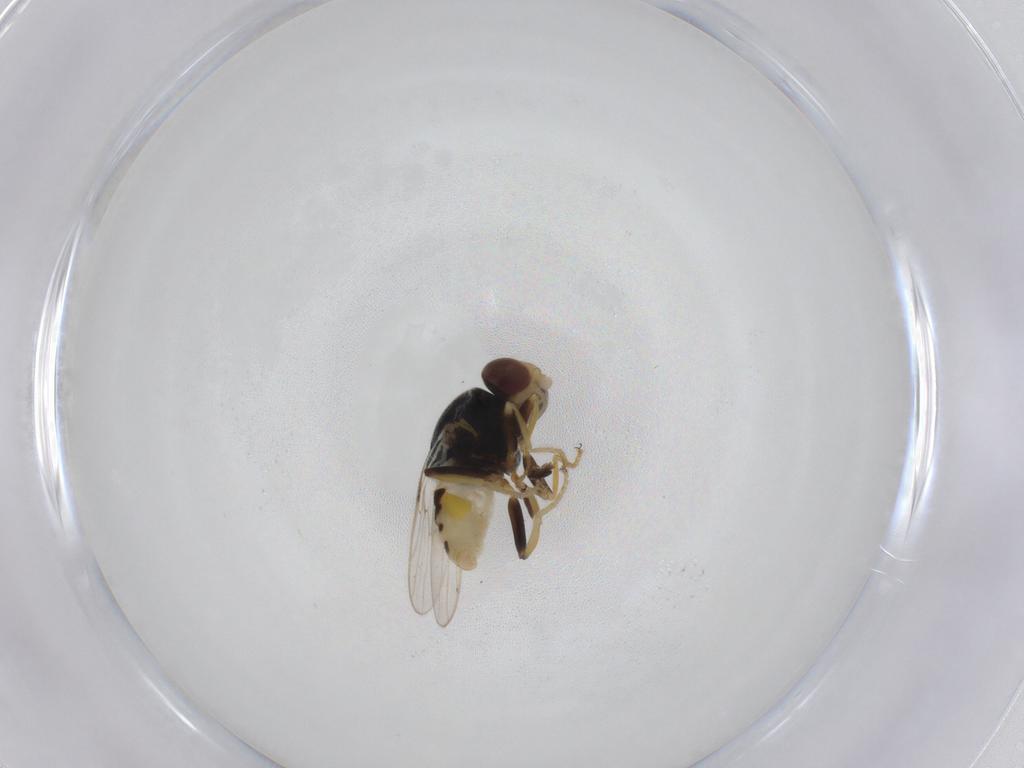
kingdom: Animalia
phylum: Arthropoda
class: Insecta
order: Diptera
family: Chloropidae
